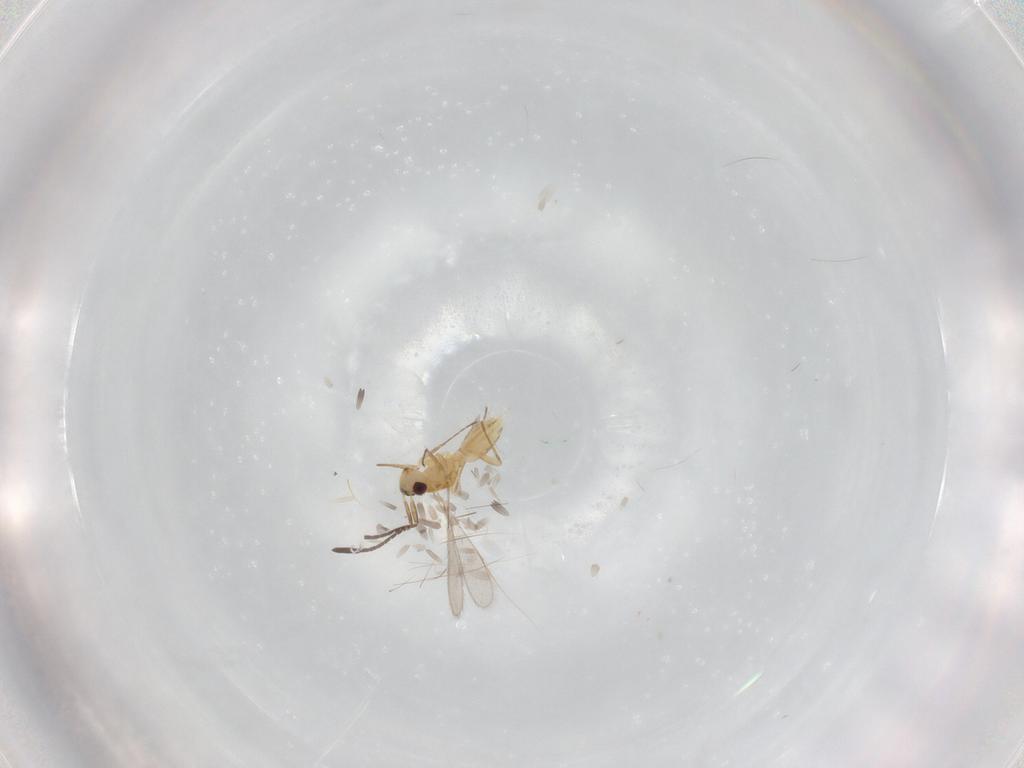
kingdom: Animalia
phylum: Arthropoda
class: Insecta
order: Hymenoptera
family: Mymaridae
